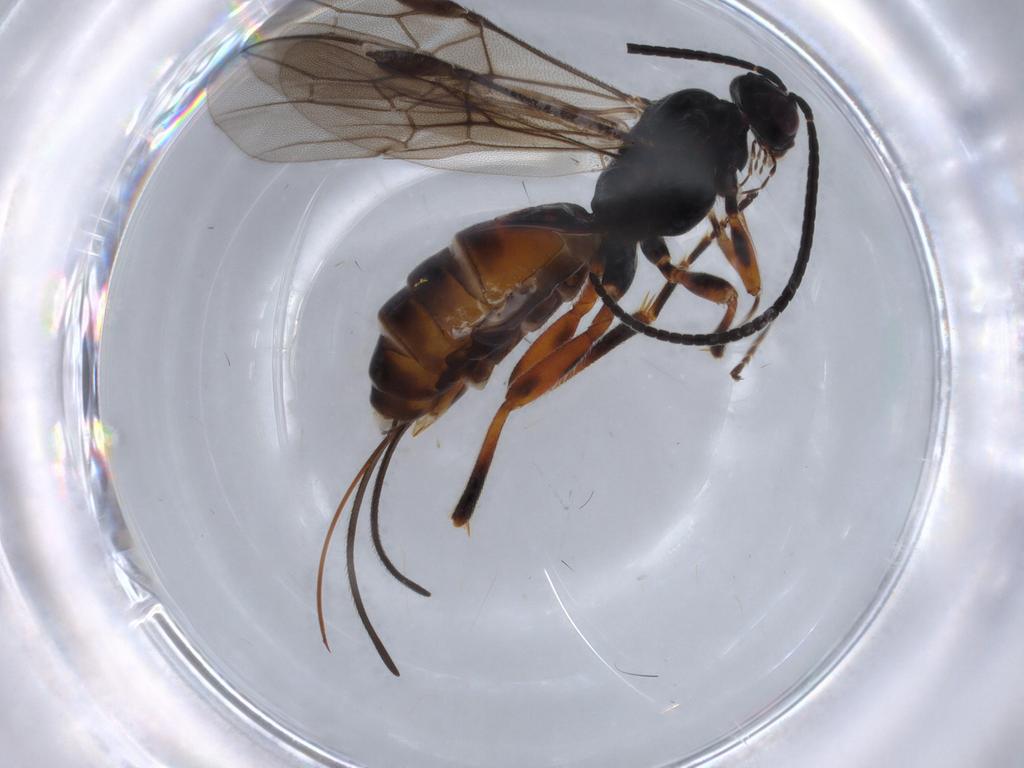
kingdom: Animalia
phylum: Arthropoda
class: Insecta
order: Hymenoptera
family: Braconidae
